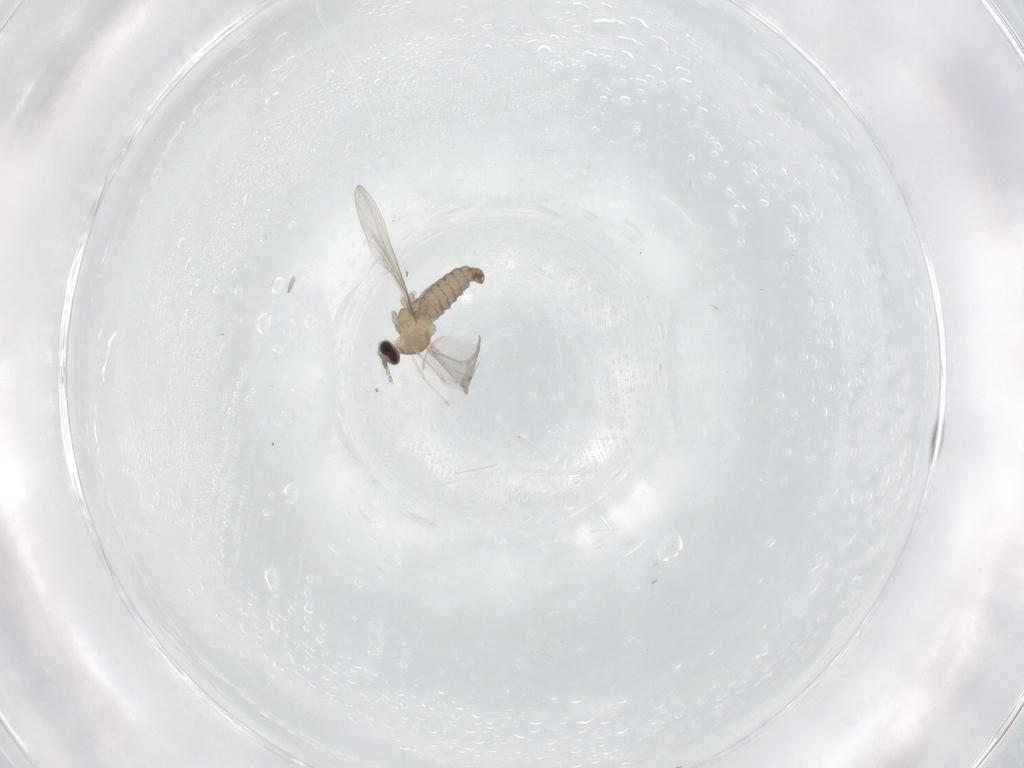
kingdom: Animalia
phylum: Arthropoda
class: Insecta
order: Diptera
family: Cecidomyiidae
